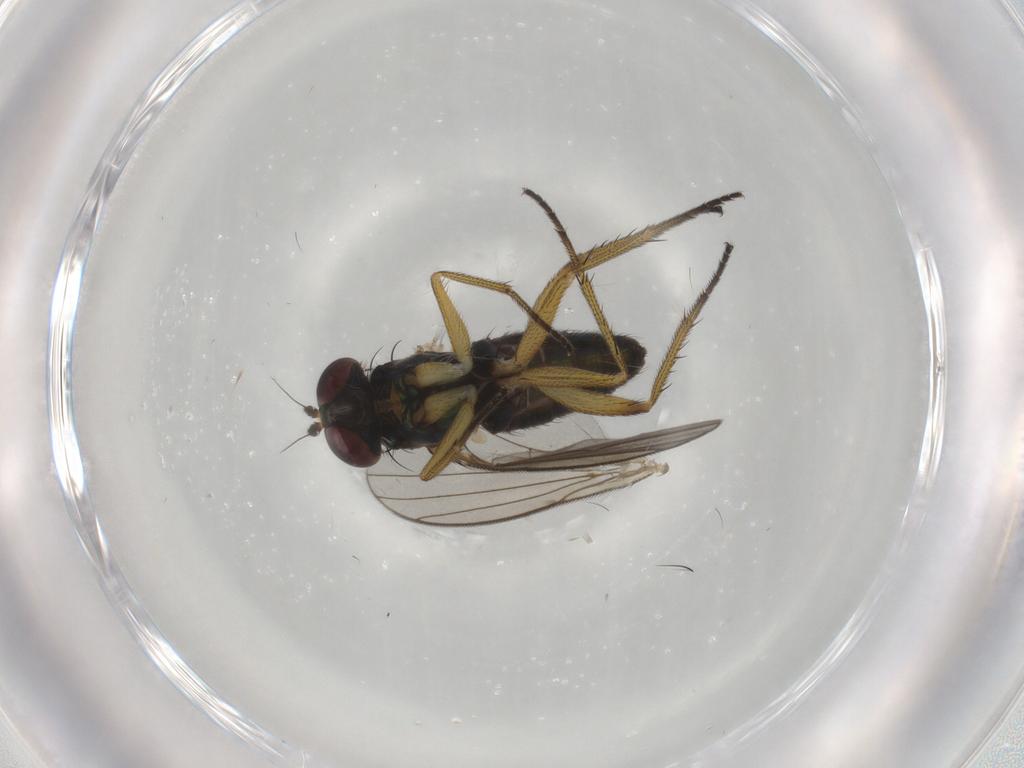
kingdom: Animalia
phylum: Arthropoda
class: Insecta
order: Diptera
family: Dolichopodidae
